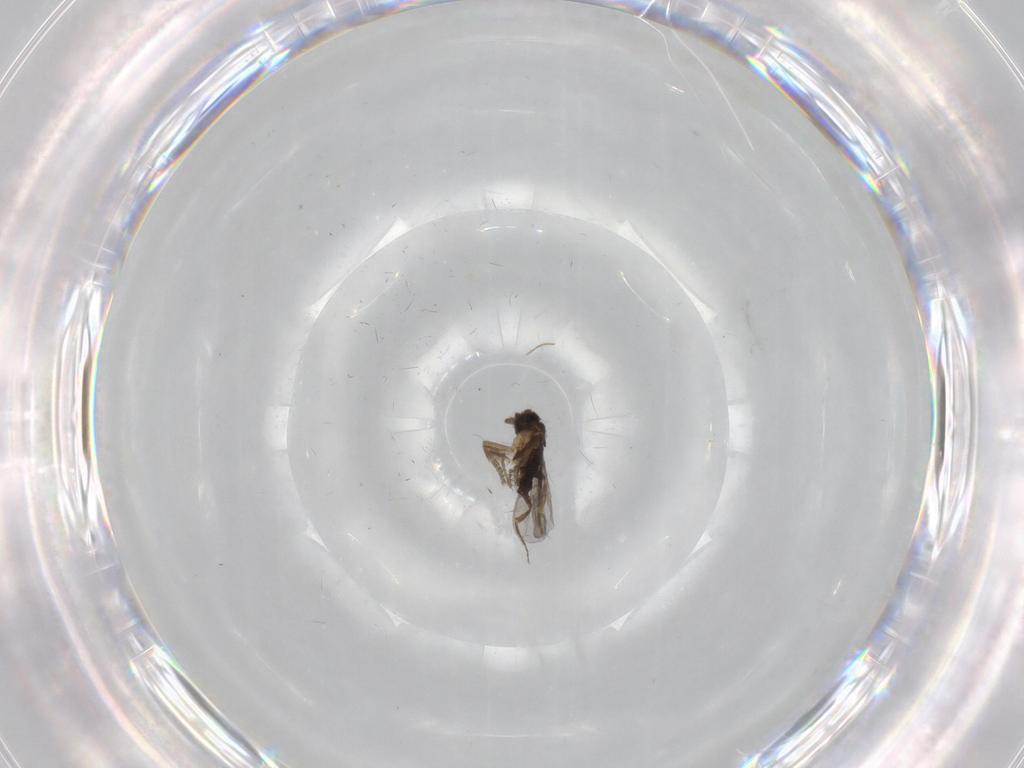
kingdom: Animalia
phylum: Arthropoda
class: Insecta
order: Diptera
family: Ceratopogonidae
